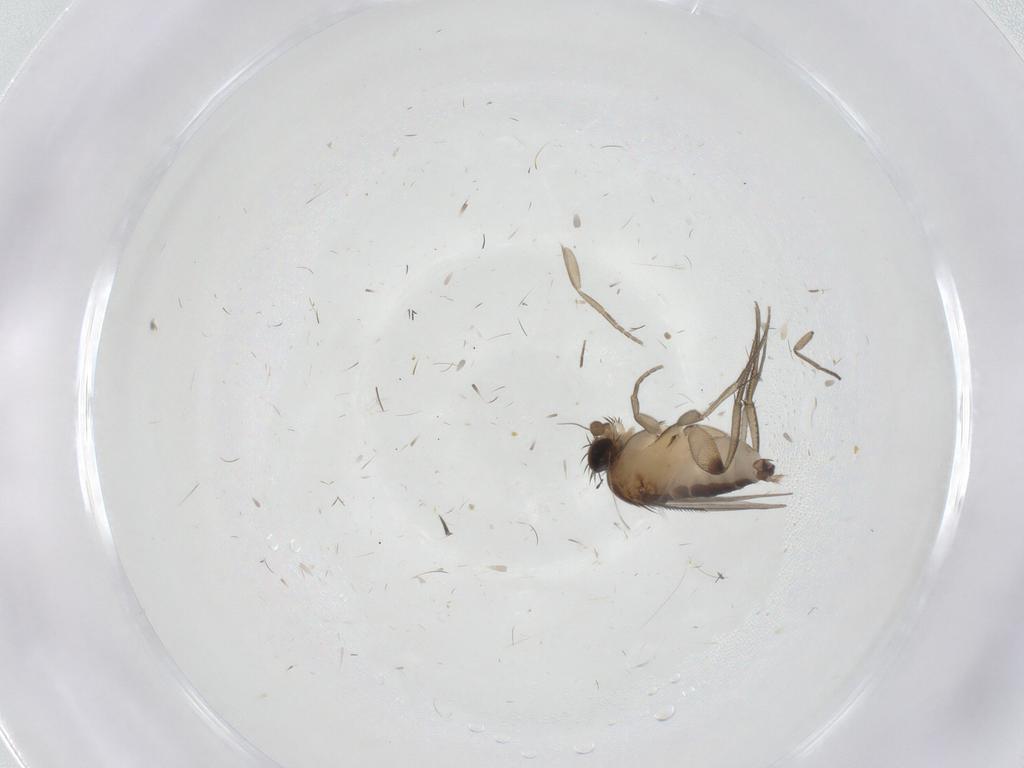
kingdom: Animalia
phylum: Arthropoda
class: Insecta
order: Diptera
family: Phoridae
